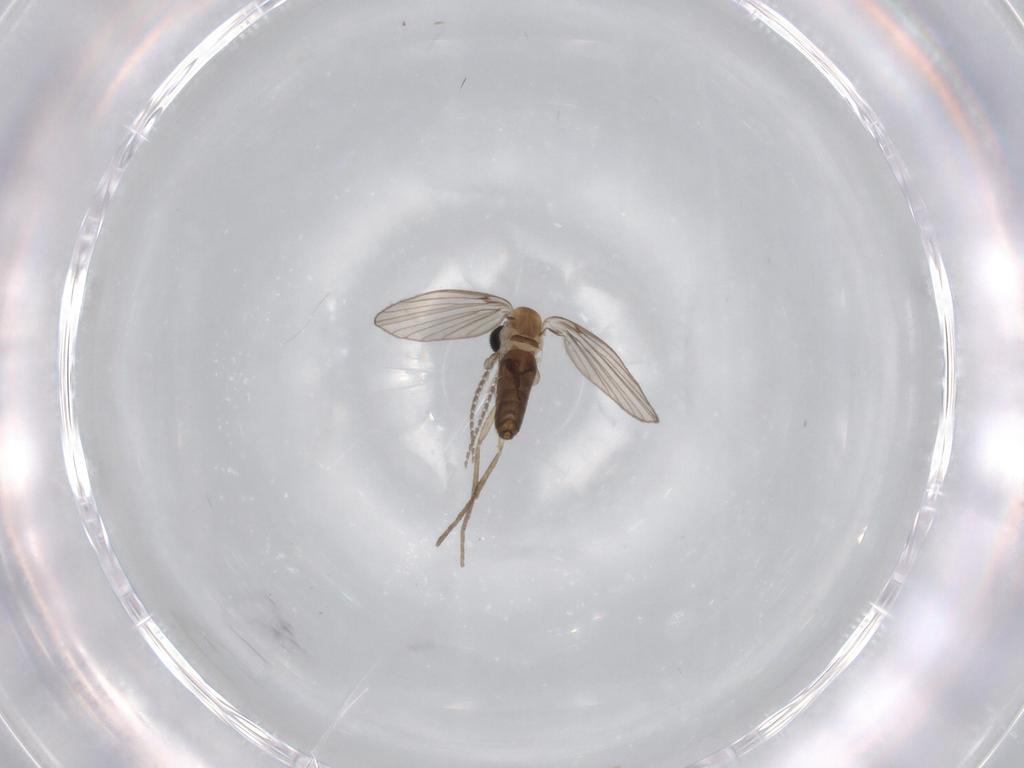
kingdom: Animalia
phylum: Arthropoda
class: Insecta
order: Diptera
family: Psychodidae
